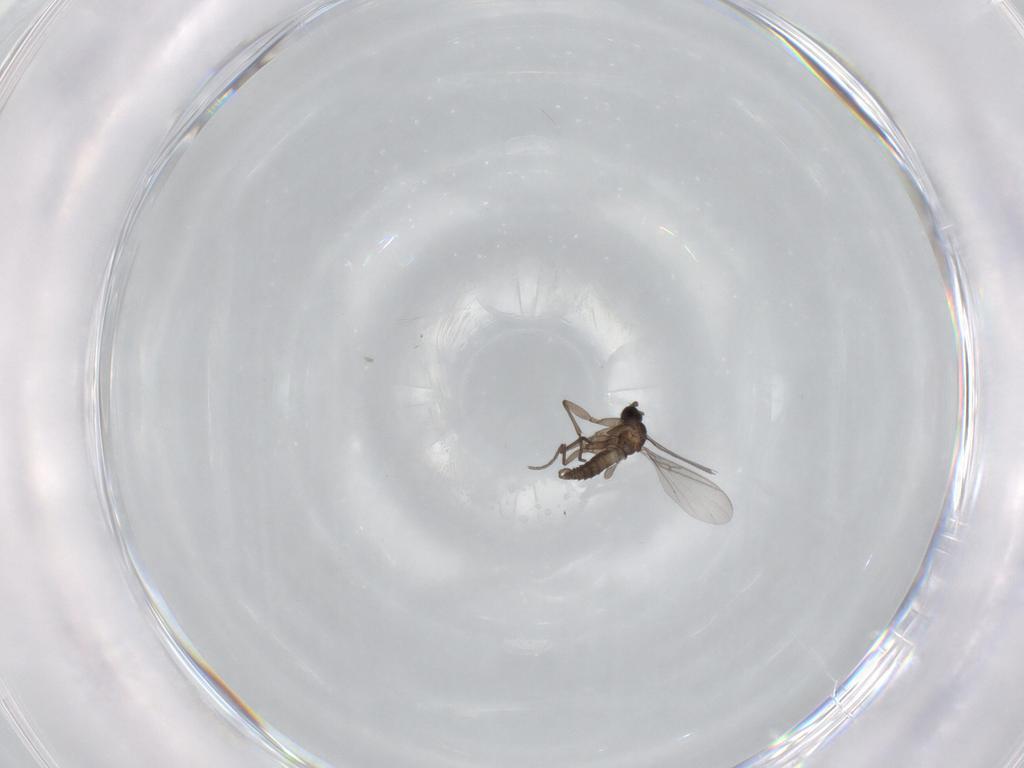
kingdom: Animalia
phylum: Arthropoda
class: Insecta
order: Diptera
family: Sciaridae
